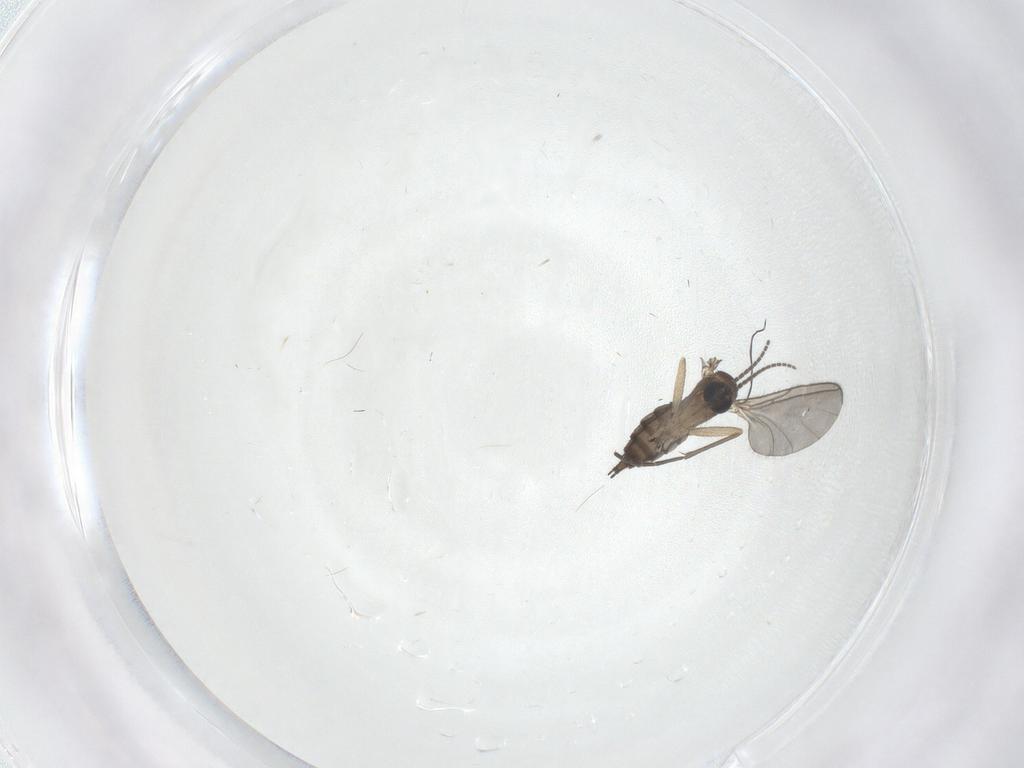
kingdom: Animalia
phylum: Arthropoda
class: Insecta
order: Diptera
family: Sciaridae
